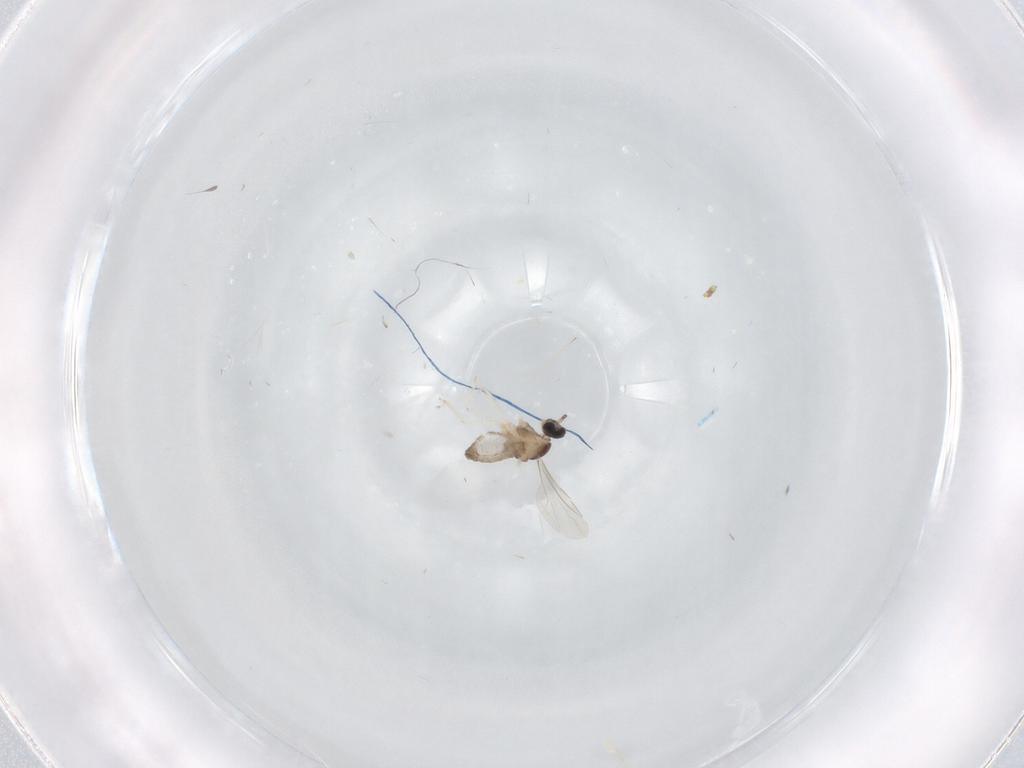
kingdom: Animalia
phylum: Arthropoda
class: Insecta
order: Diptera
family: Cecidomyiidae
